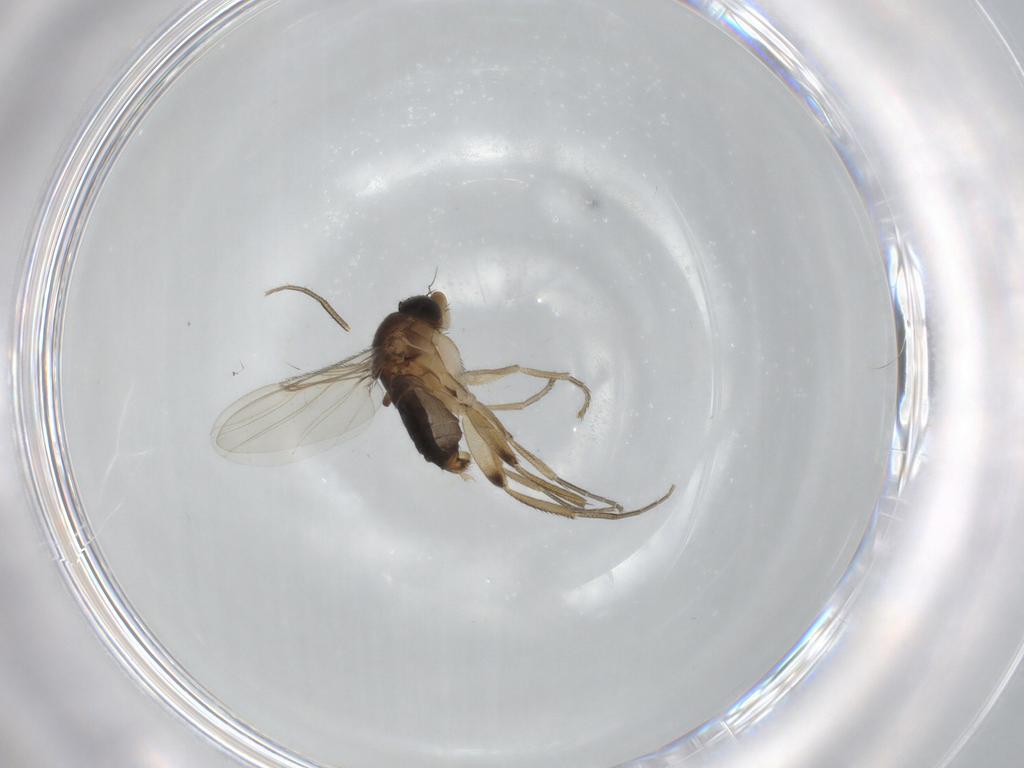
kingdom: Animalia
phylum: Arthropoda
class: Insecta
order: Diptera
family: Phoridae
